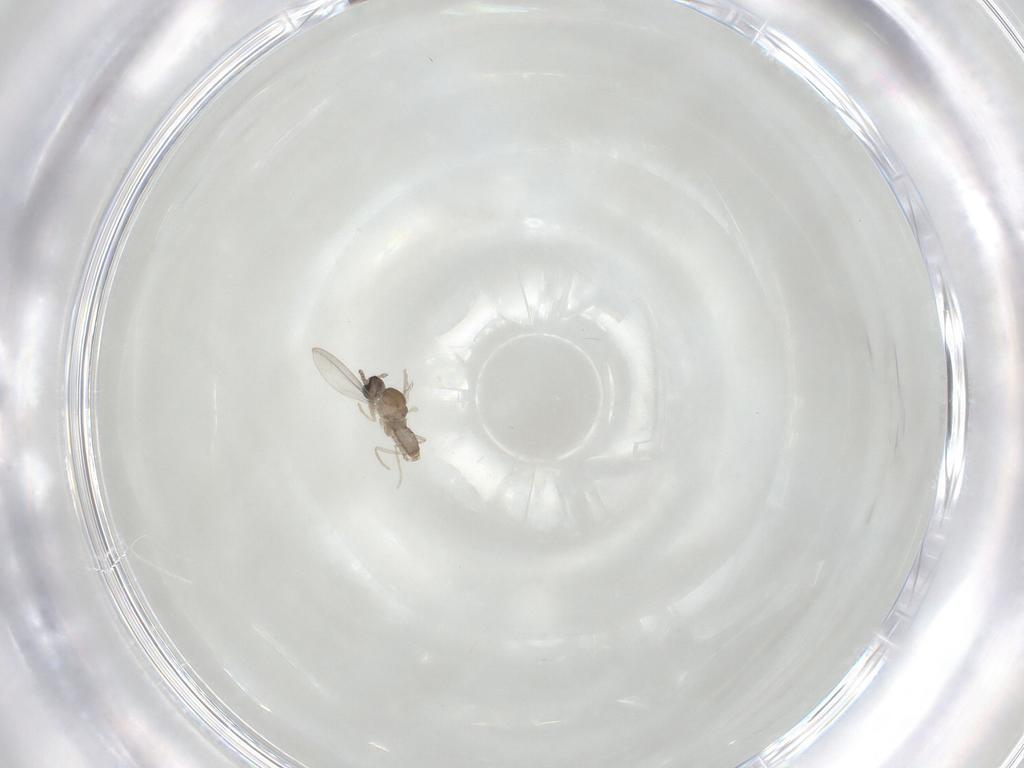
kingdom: Animalia
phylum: Arthropoda
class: Insecta
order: Diptera
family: Cecidomyiidae
